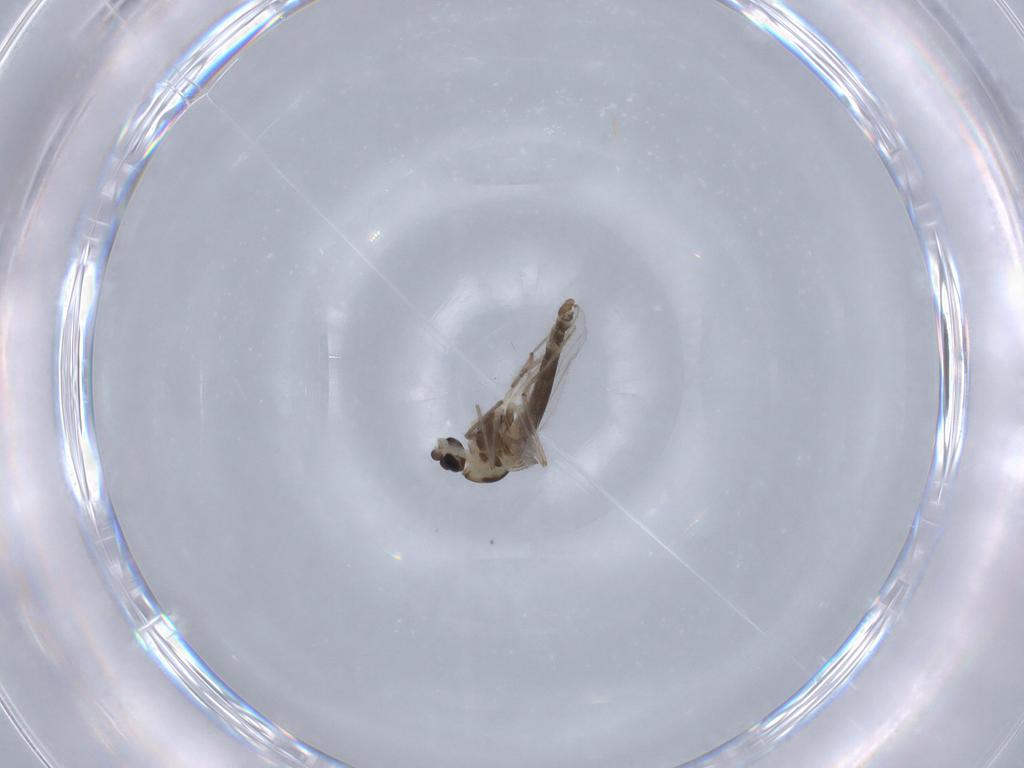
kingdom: Animalia
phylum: Arthropoda
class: Insecta
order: Diptera
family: Chironomidae
